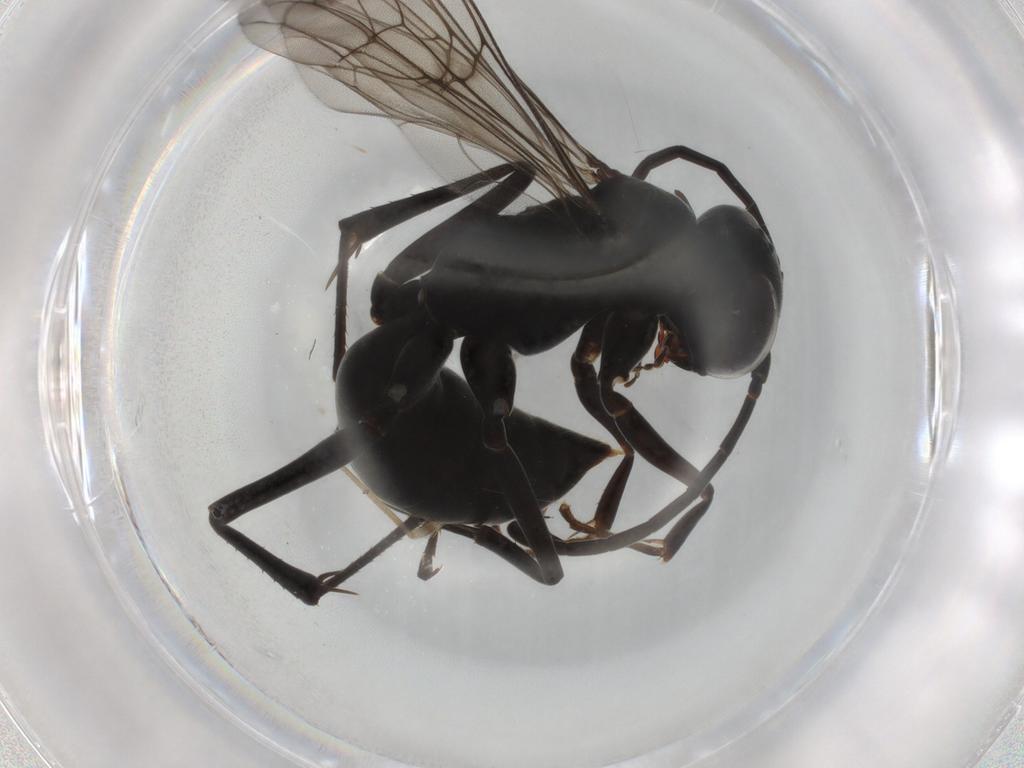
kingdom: Animalia
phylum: Arthropoda
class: Insecta
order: Hymenoptera
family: Pompilidae
